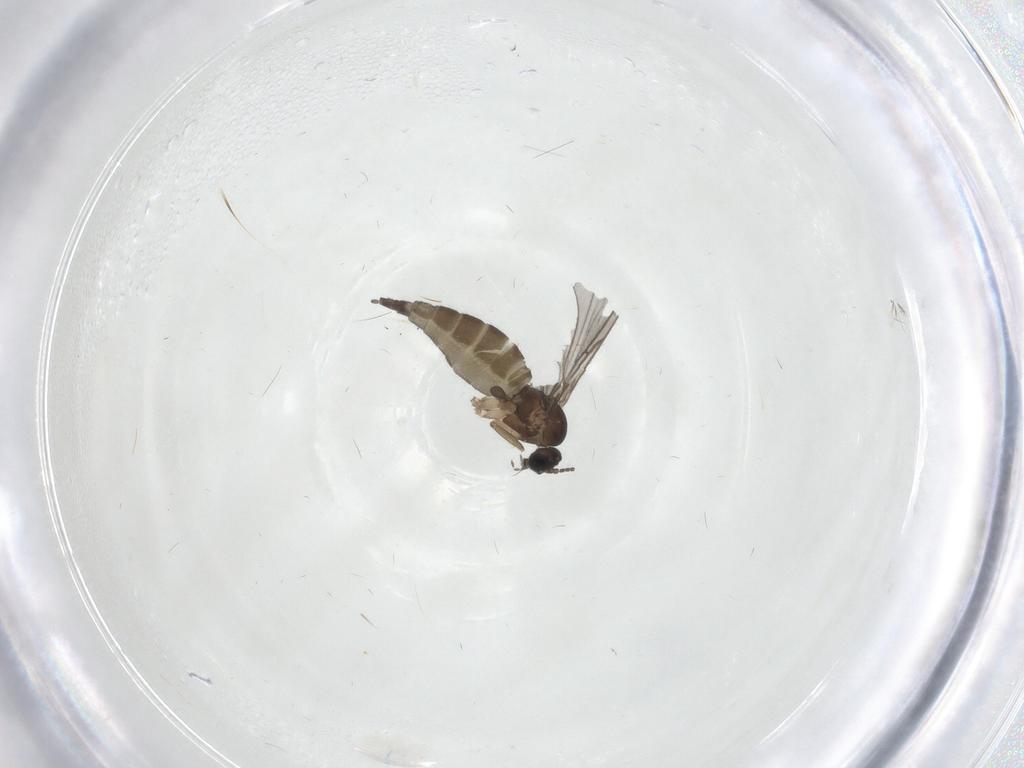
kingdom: Animalia
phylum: Arthropoda
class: Insecta
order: Diptera
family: Sciaridae
